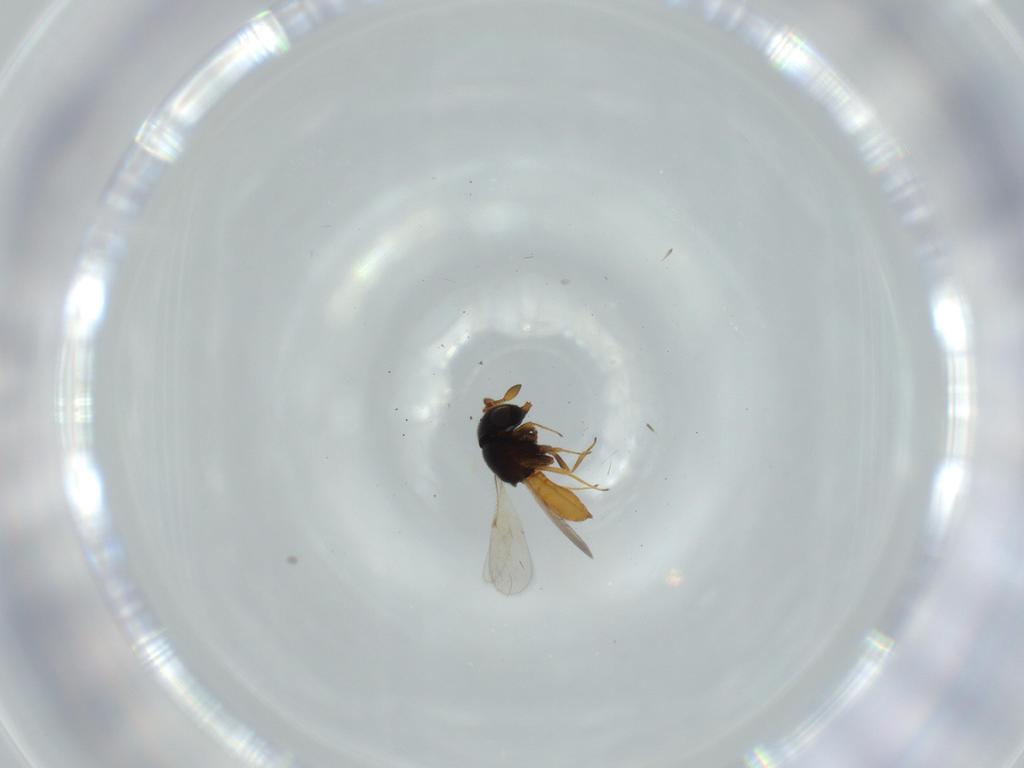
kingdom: Animalia
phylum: Arthropoda
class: Insecta
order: Hymenoptera
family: Scelionidae
